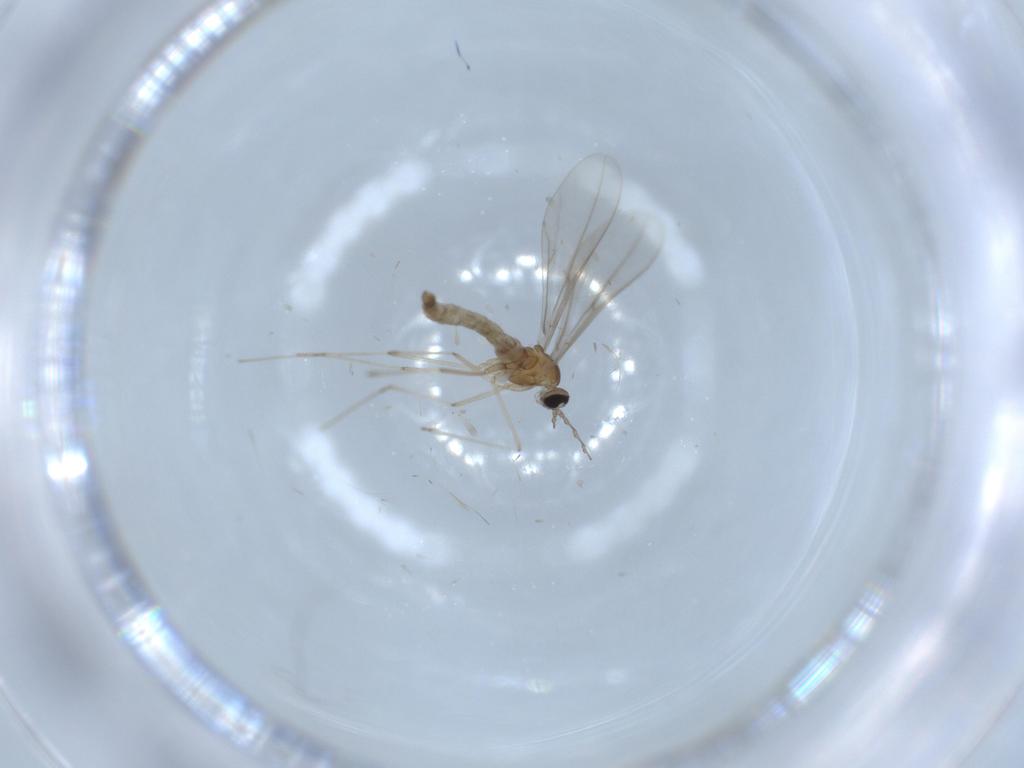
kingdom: Animalia
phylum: Arthropoda
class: Insecta
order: Diptera
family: Cecidomyiidae
